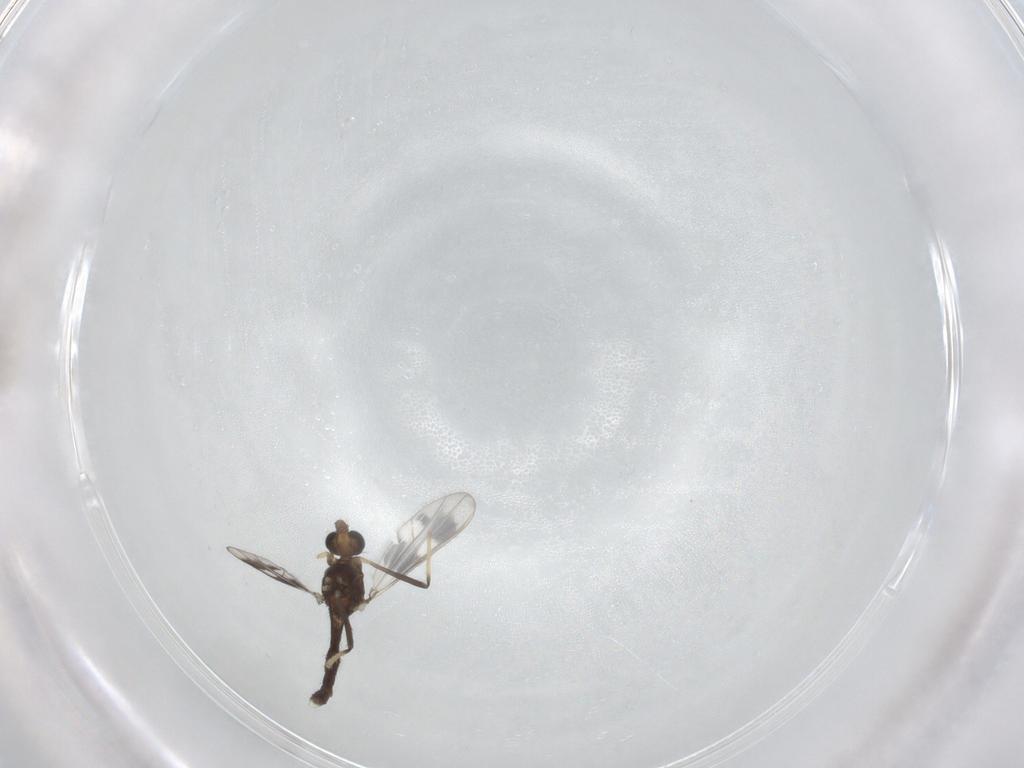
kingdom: Animalia
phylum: Arthropoda
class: Insecta
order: Diptera
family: Chironomidae
